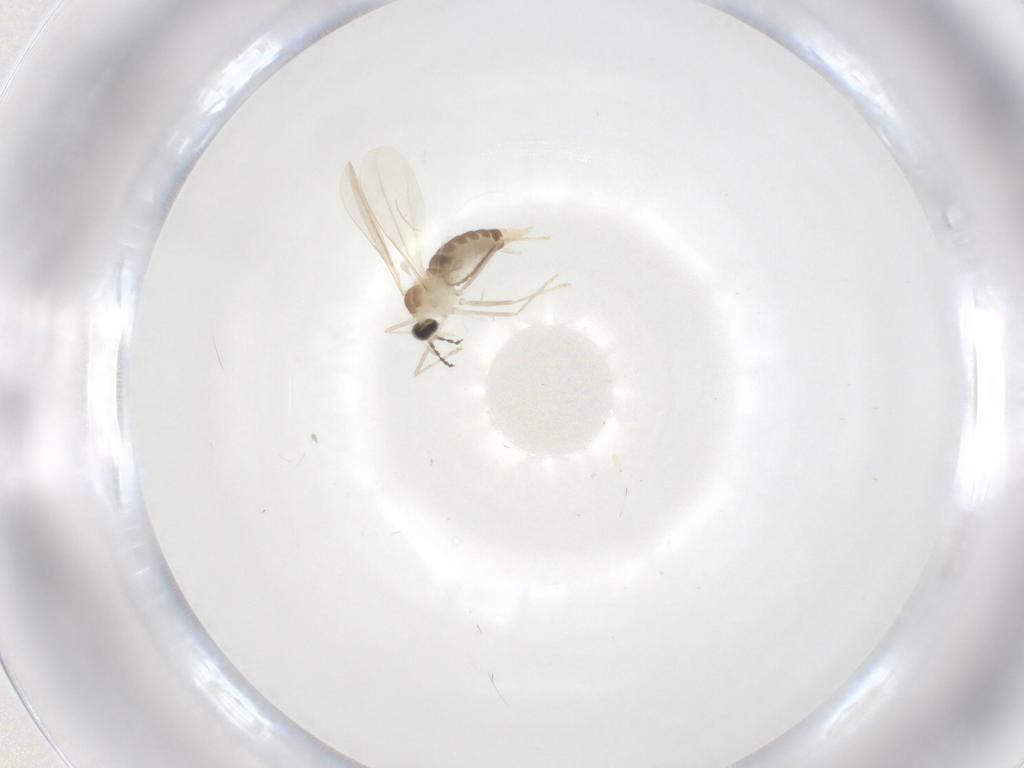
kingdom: Animalia
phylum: Arthropoda
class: Insecta
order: Diptera
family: Cecidomyiidae
